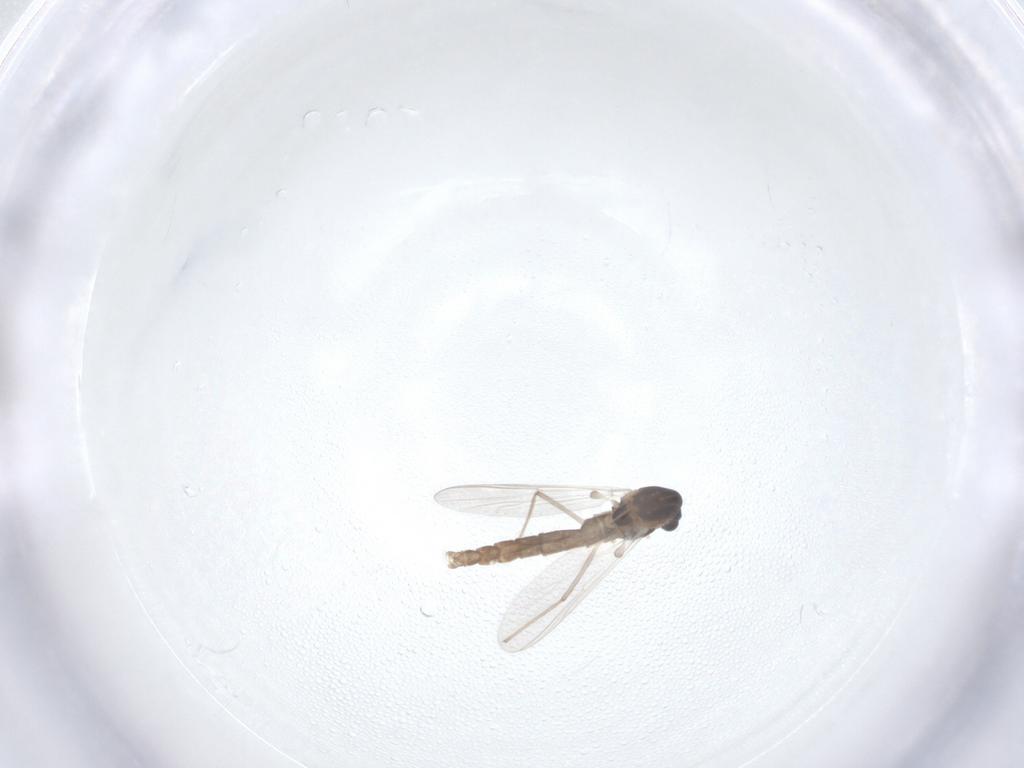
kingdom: Animalia
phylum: Arthropoda
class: Insecta
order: Diptera
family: Chironomidae
